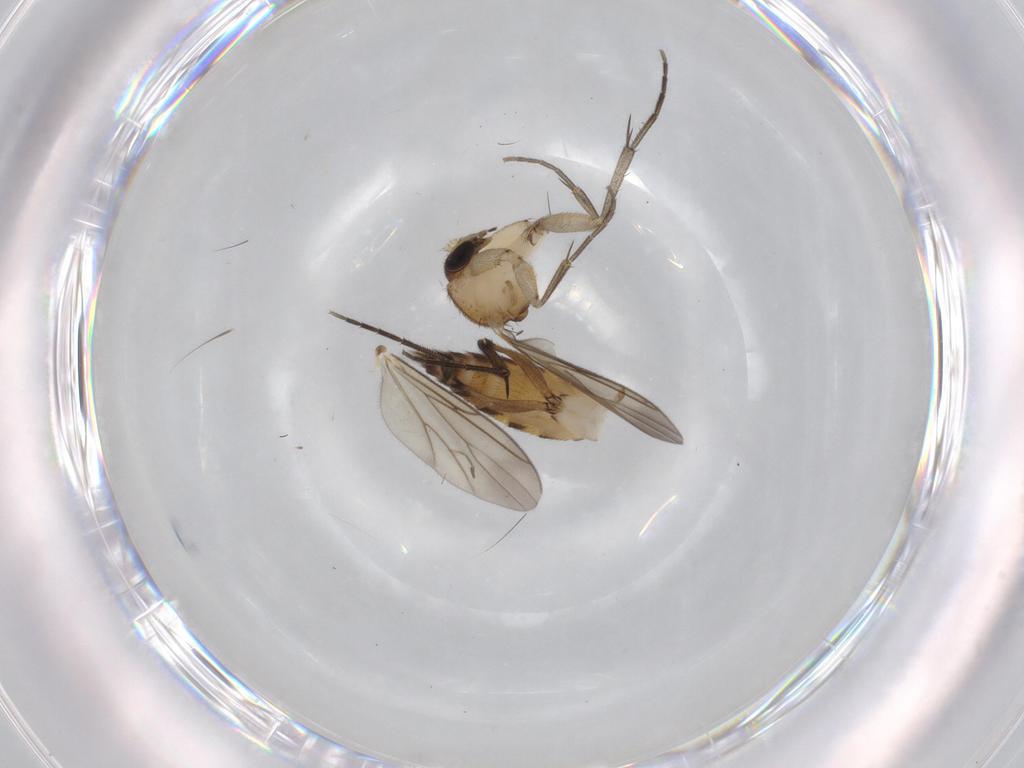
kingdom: Animalia
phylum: Arthropoda
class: Insecta
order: Diptera
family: Mycetophilidae
